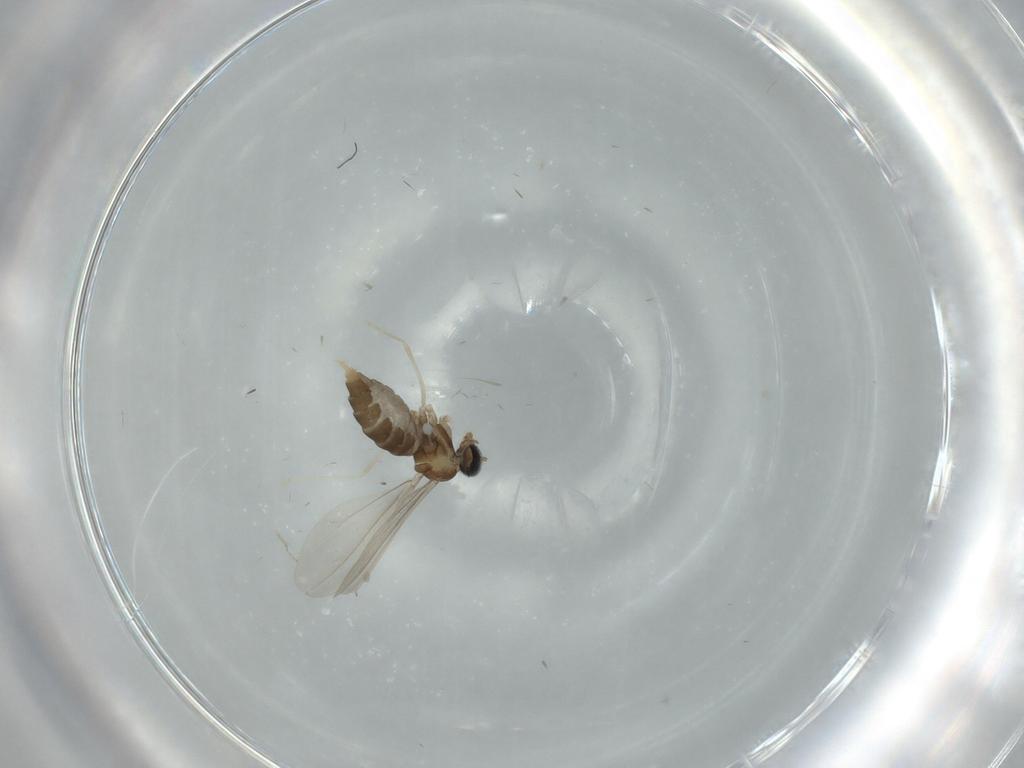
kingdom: Animalia
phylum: Arthropoda
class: Insecta
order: Diptera
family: Cecidomyiidae
